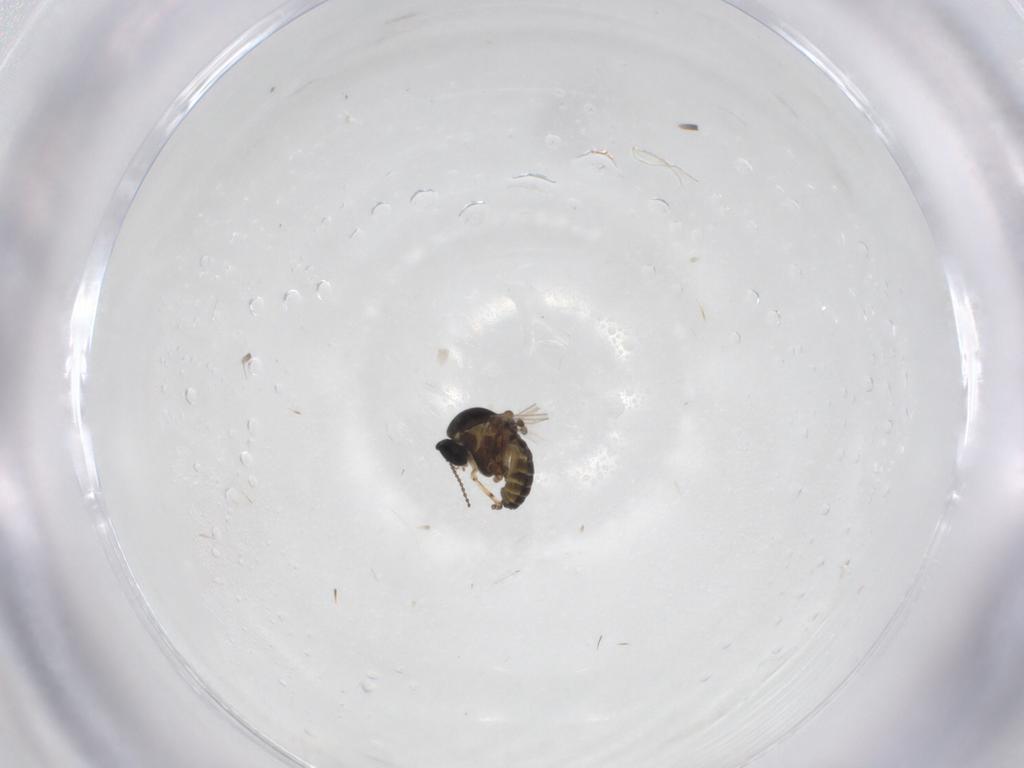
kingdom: Animalia
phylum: Arthropoda
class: Insecta
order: Diptera
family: Ceratopogonidae
